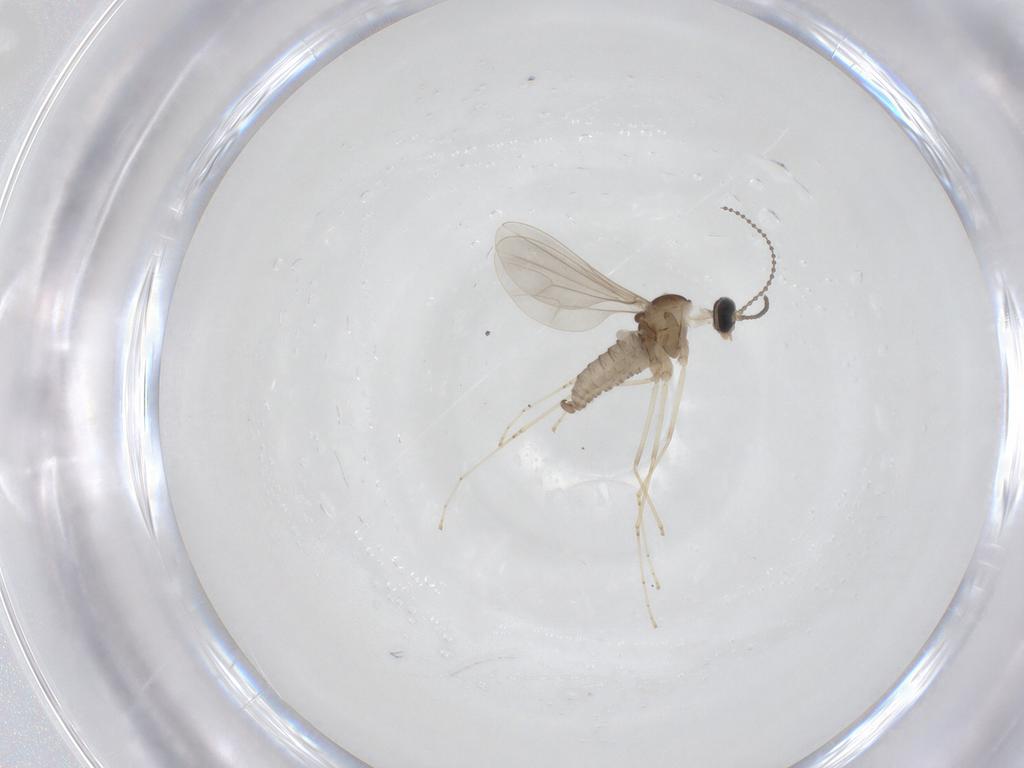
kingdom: Animalia
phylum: Arthropoda
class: Insecta
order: Diptera
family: Cecidomyiidae
